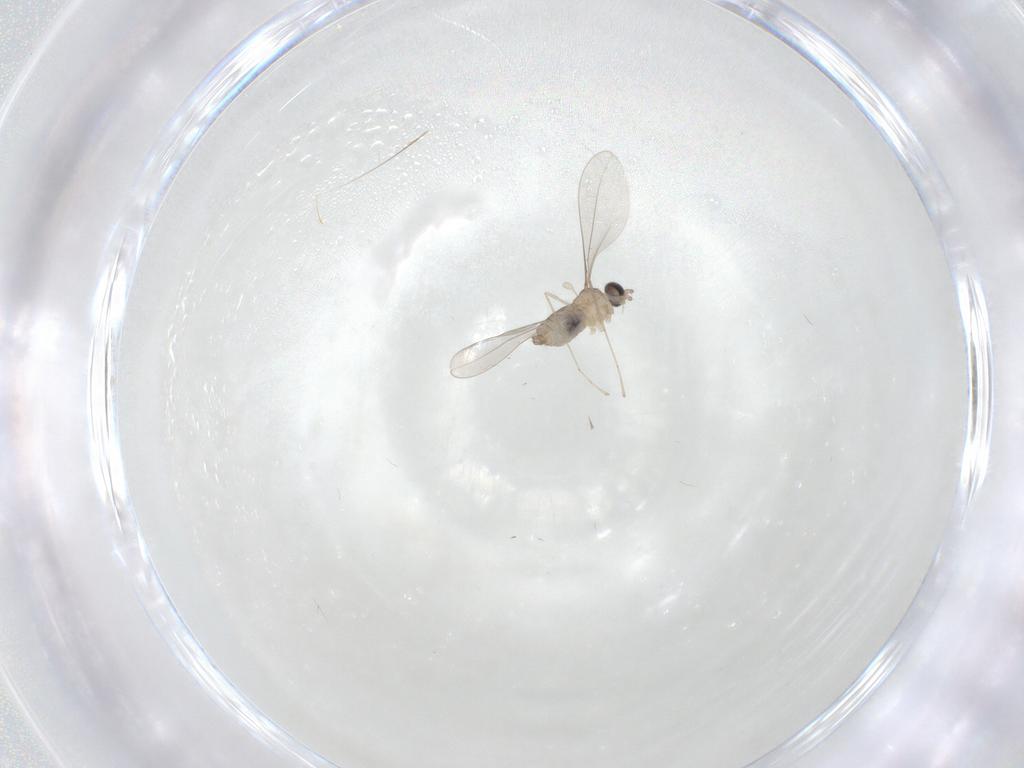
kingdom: Animalia
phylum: Arthropoda
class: Insecta
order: Diptera
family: Cecidomyiidae
